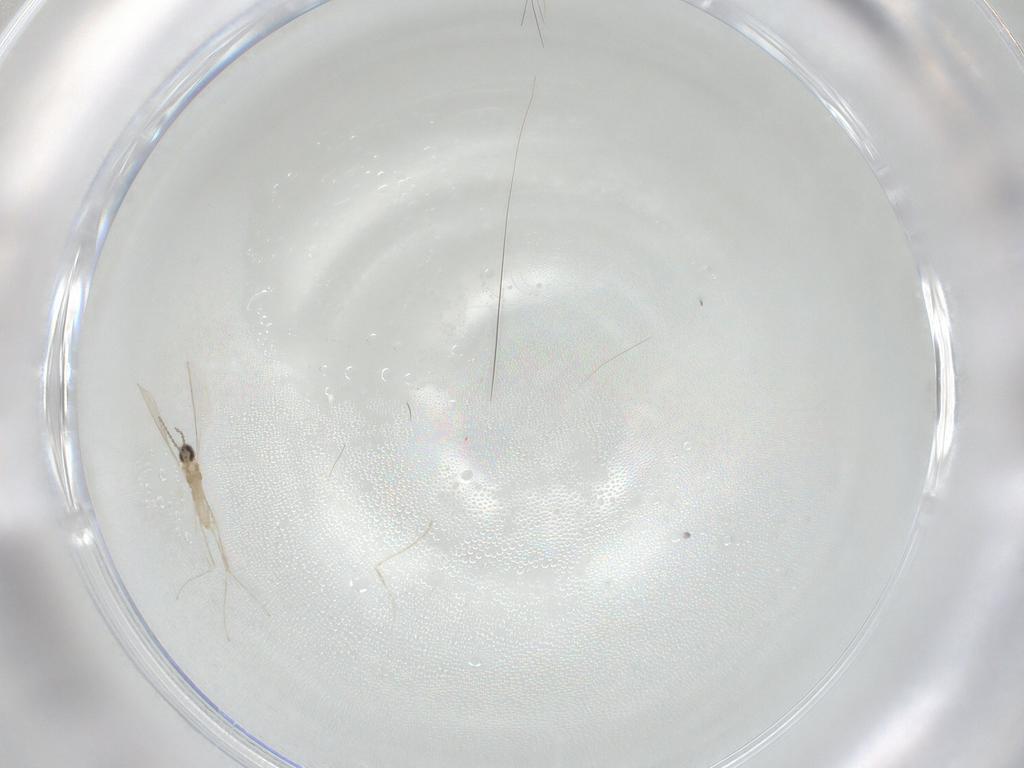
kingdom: Animalia
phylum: Arthropoda
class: Insecta
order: Diptera
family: Cecidomyiidae
